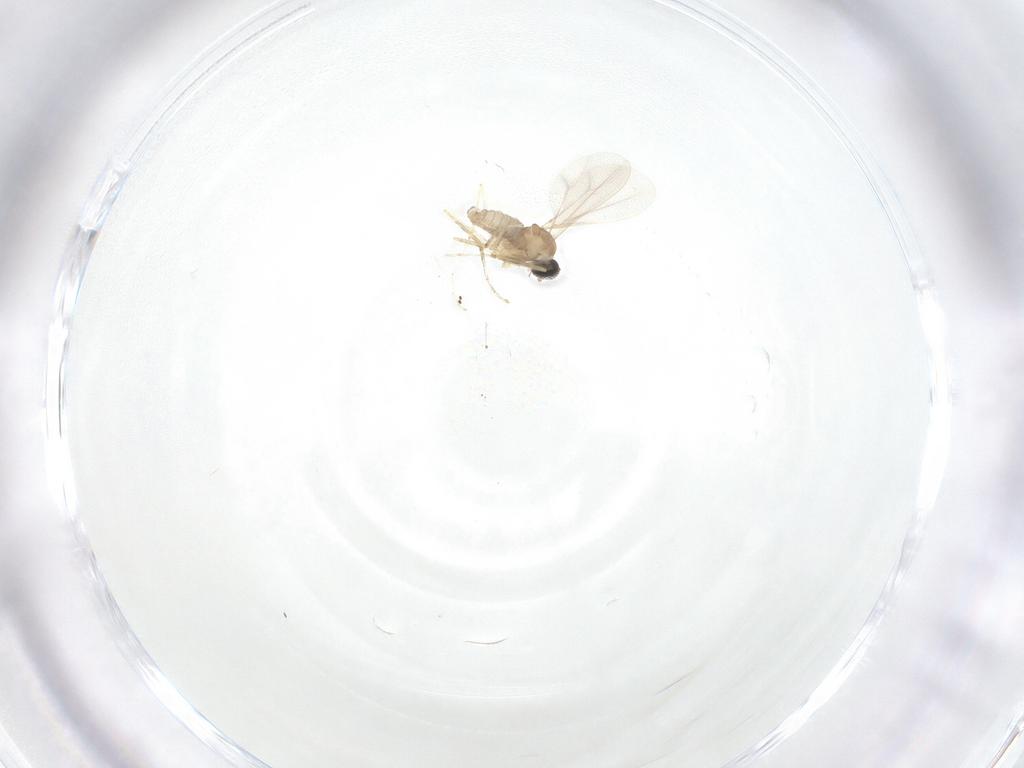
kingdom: Animalia
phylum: Arthropoda
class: Insecta
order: Diptera
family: Cecidomyiidae
